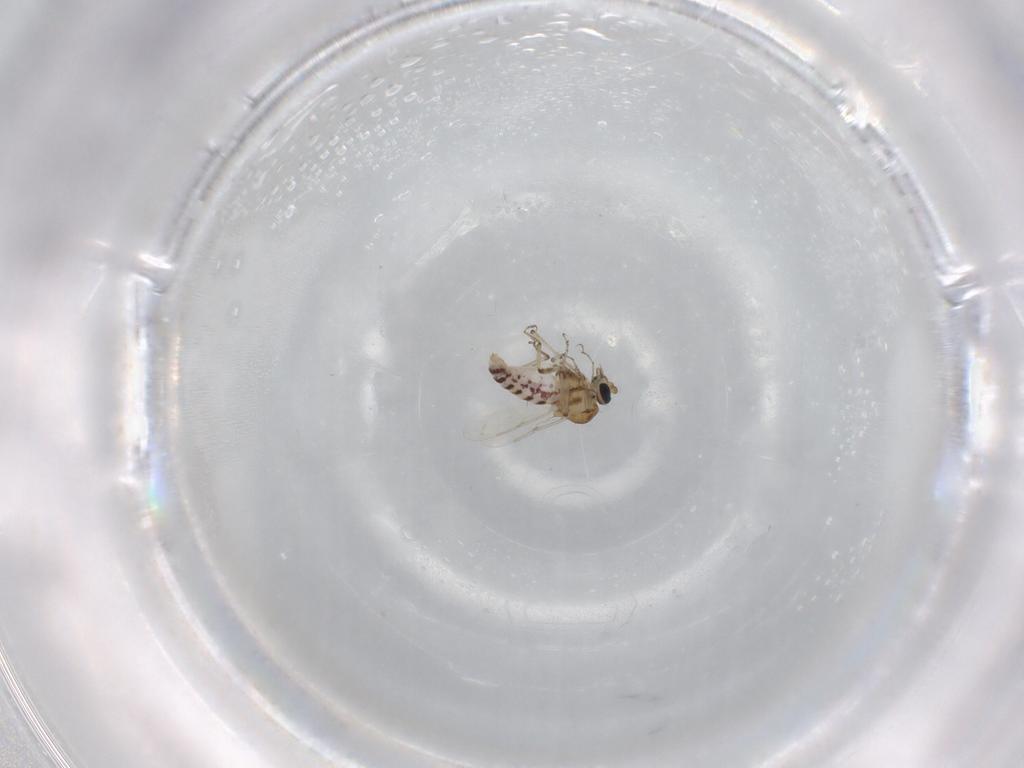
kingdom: Animalia
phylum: Arthropoda
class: Insecta
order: Diptera
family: Ceratopogonidae
